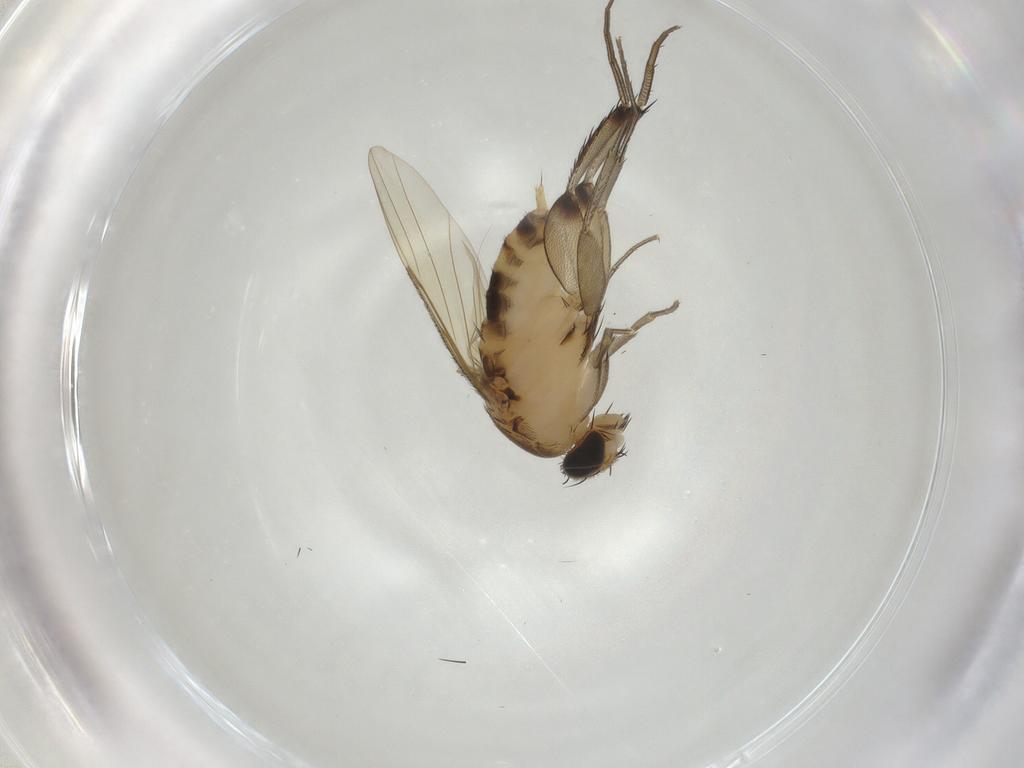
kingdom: Animalia
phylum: Arthropoda
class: Insecta
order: Diptera
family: Phoridae
